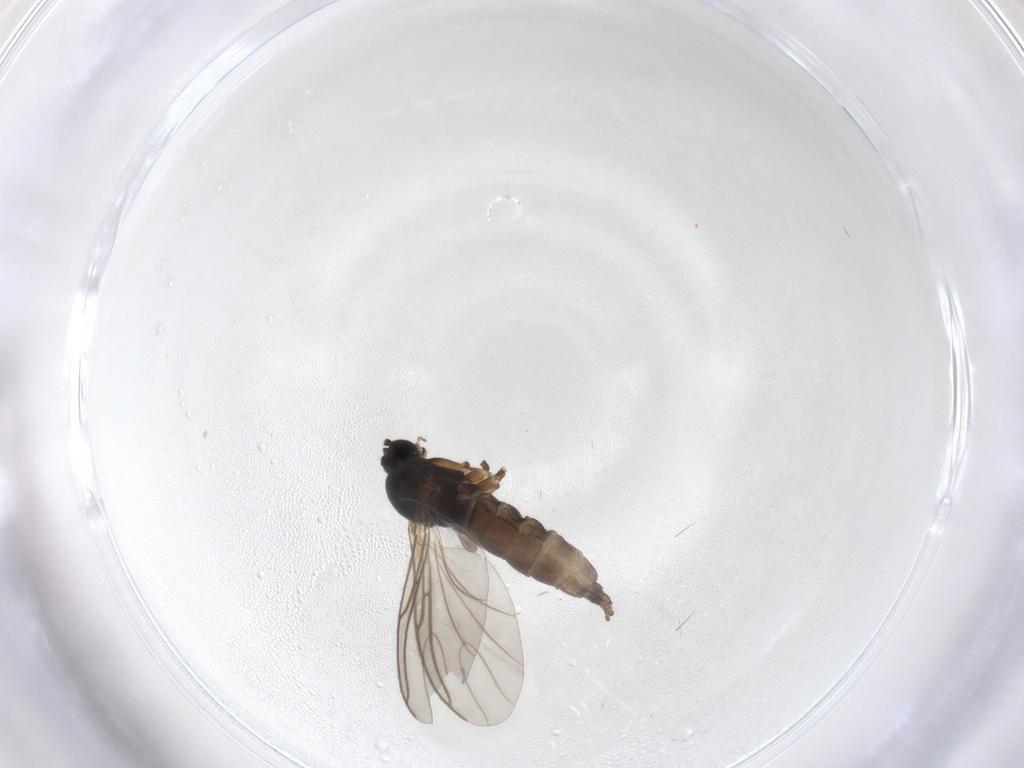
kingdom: Animalia
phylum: Arthropoda
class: Insecta
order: Diptera
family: Sciaridae
